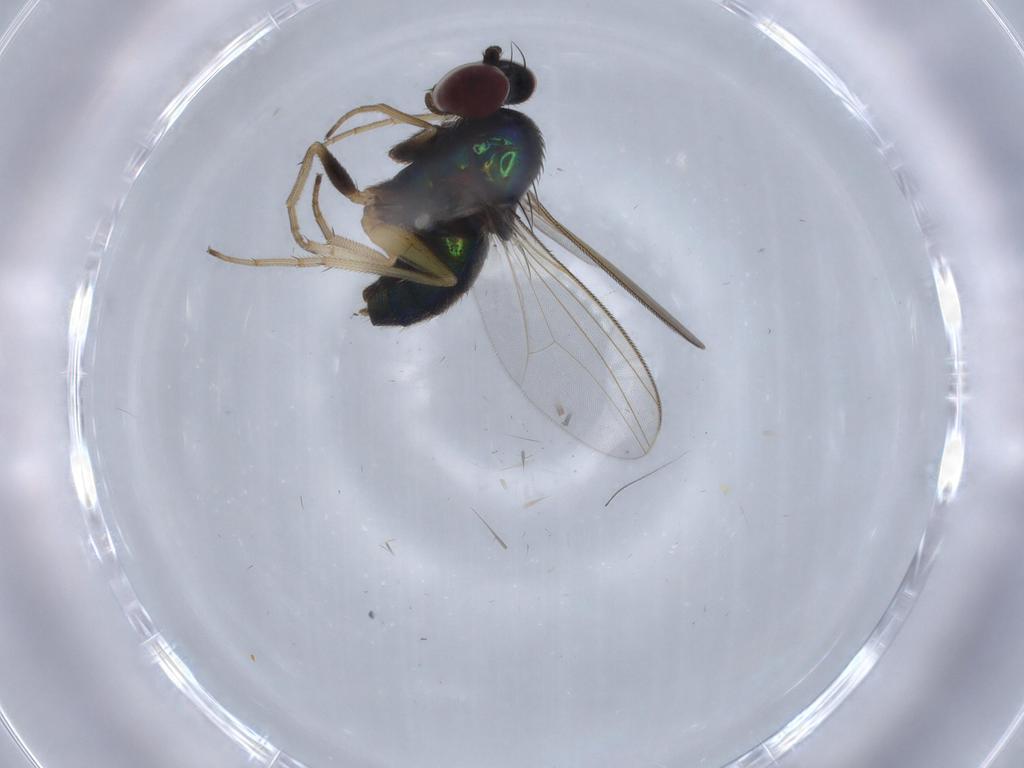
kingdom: Animalia
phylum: Arthropoda
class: Insecta
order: Diptera
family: Dolichopodidae
